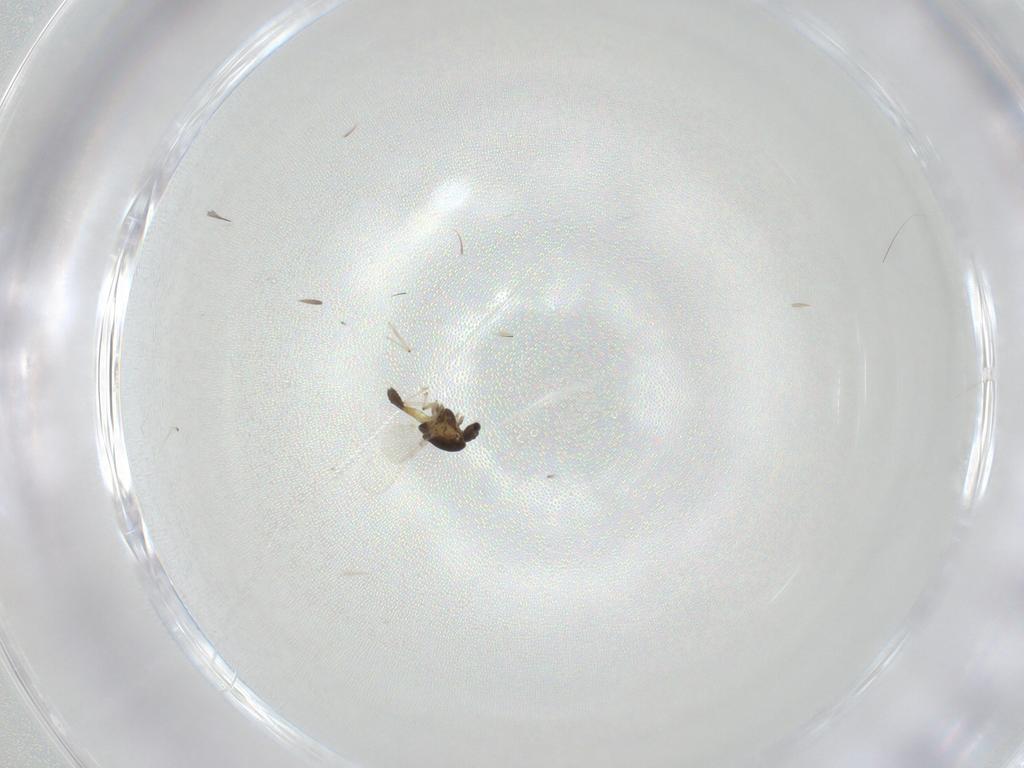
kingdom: Animalia
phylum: Arthropoda
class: Insecta
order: Diptera
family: Chironomidae
